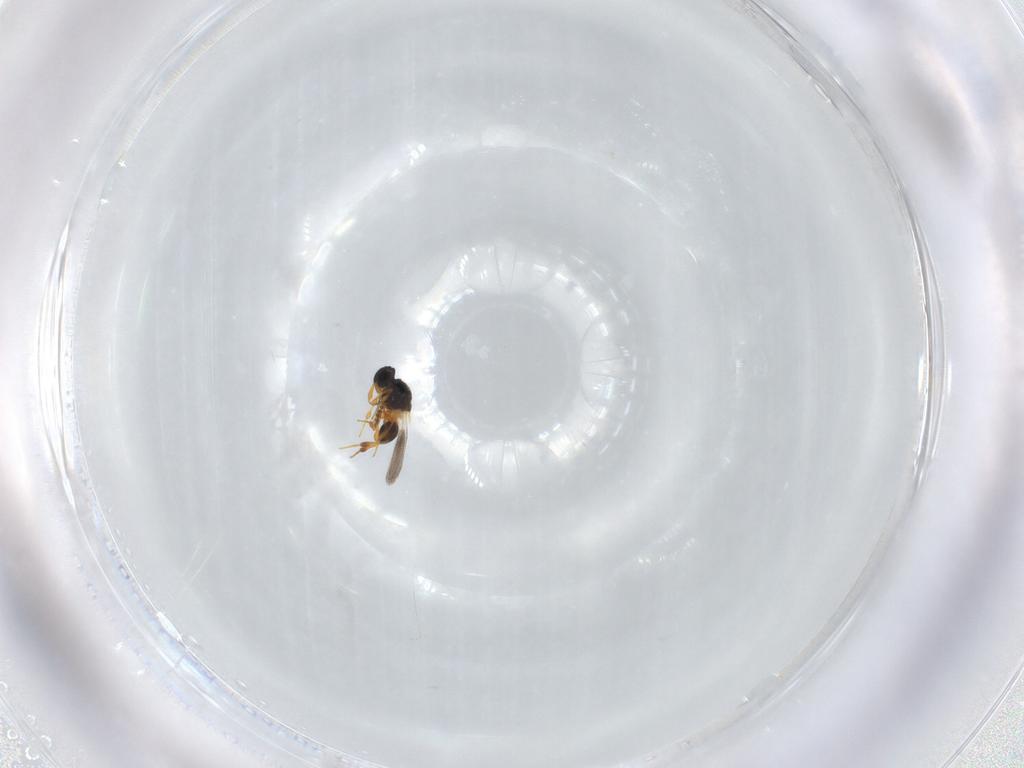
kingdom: Animalia
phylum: Arthropoda
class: Insecta
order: Hymenoptera
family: Platygastridae
